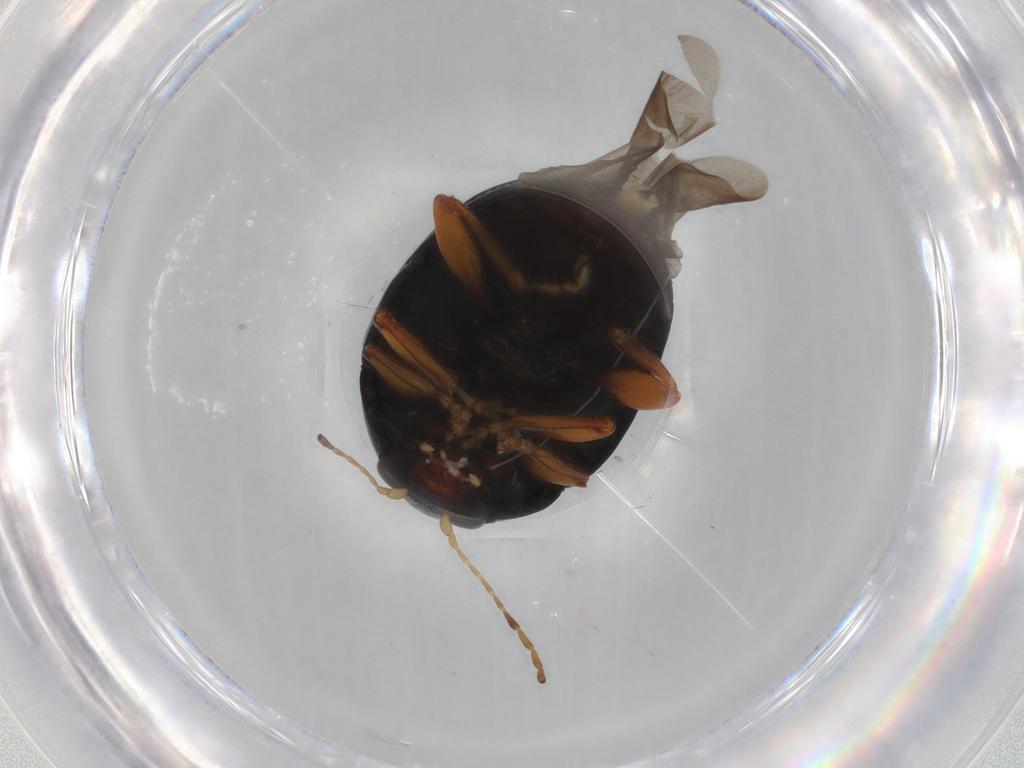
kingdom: Animalia
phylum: Arthropoda
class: Insecta
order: Coleoptera
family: Chrysomelidae
